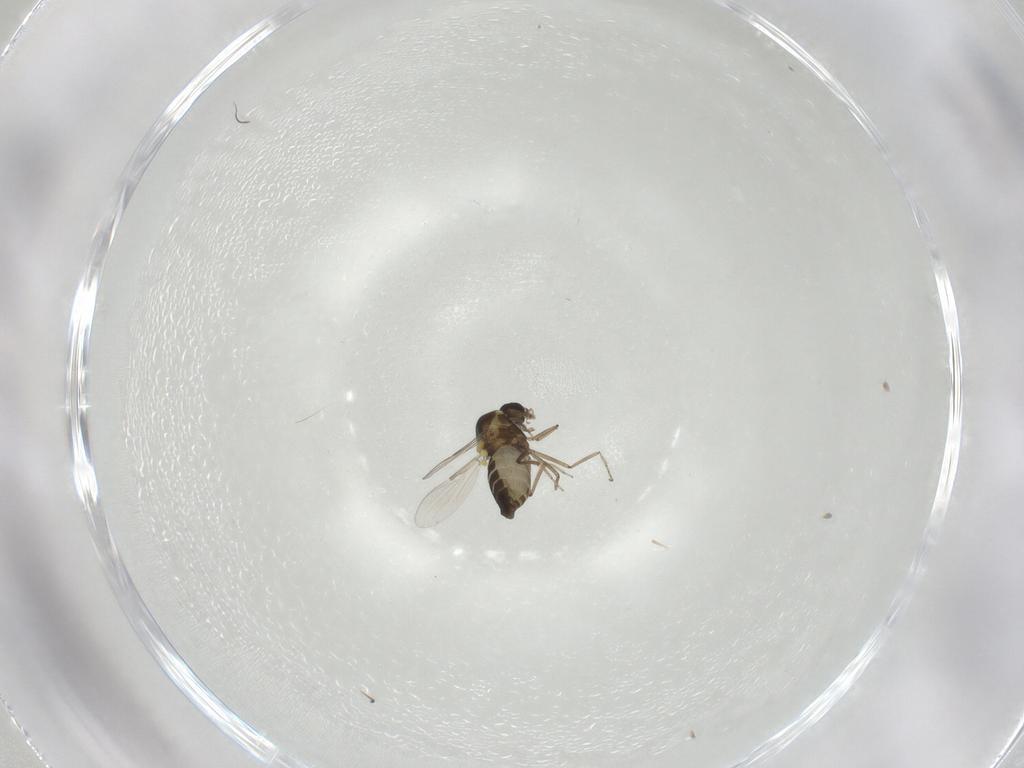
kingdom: Animalia
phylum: Arthropoda
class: Insecta
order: Diptera
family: Ceratopogonidae
